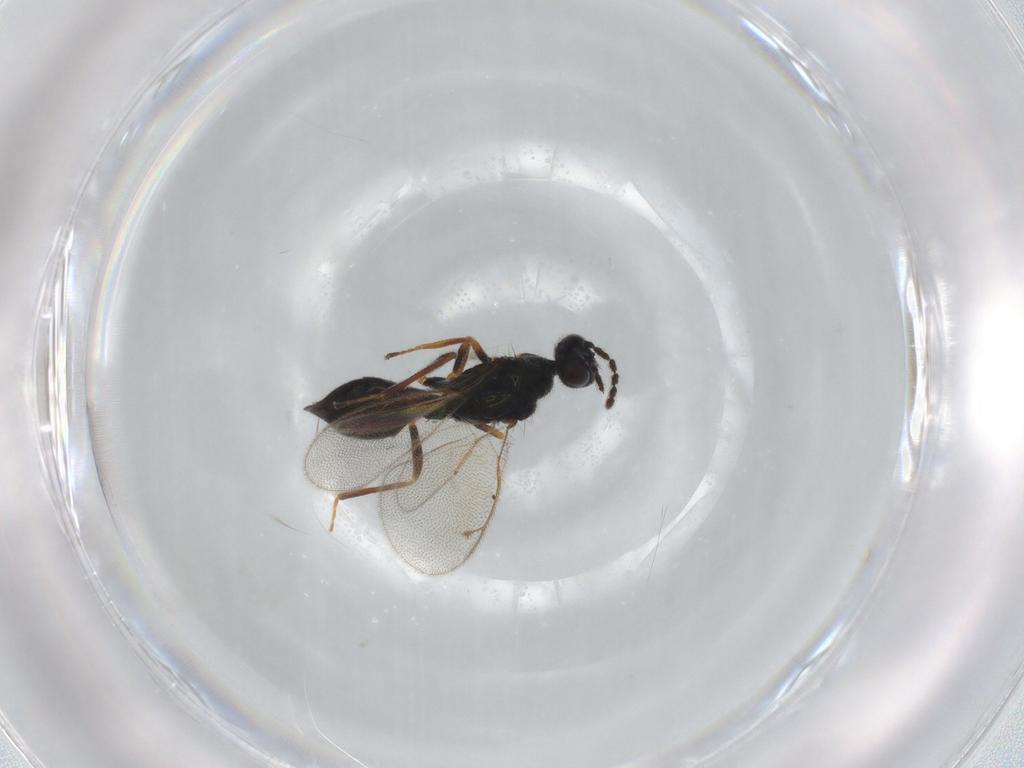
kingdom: Animalia
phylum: Arthropoda
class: Insecta
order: Hymenoptera
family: Eulophidae
